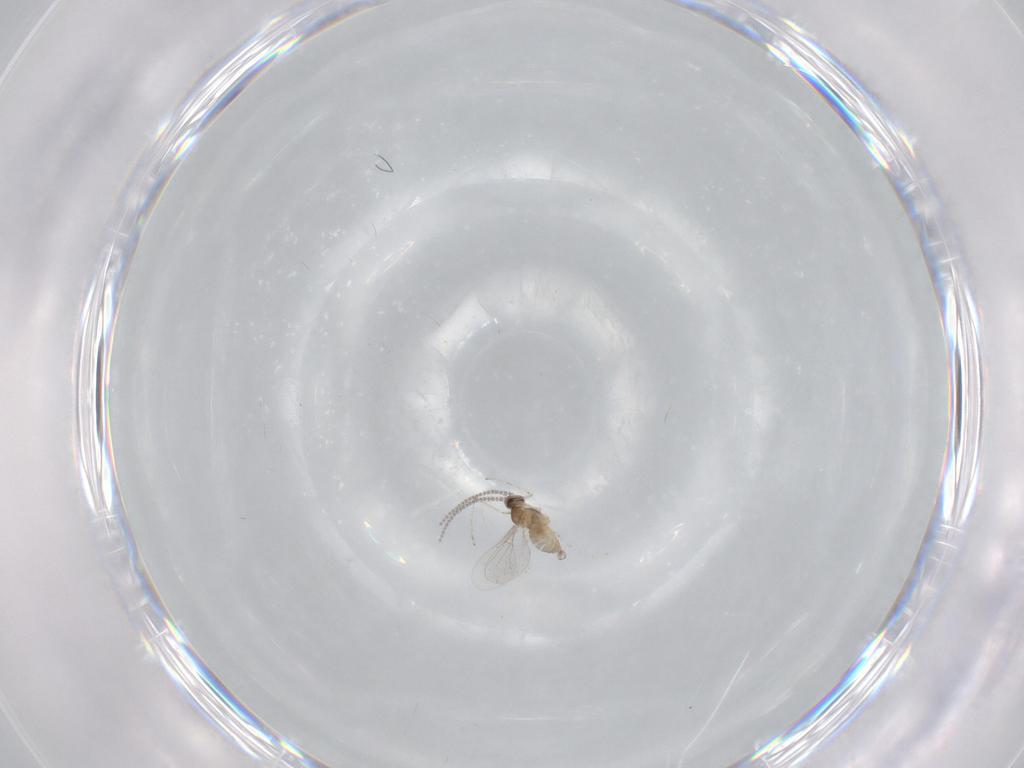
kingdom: Animalia
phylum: Arthropoda
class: Insecta
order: Diptera
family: Cecidomyiidae
